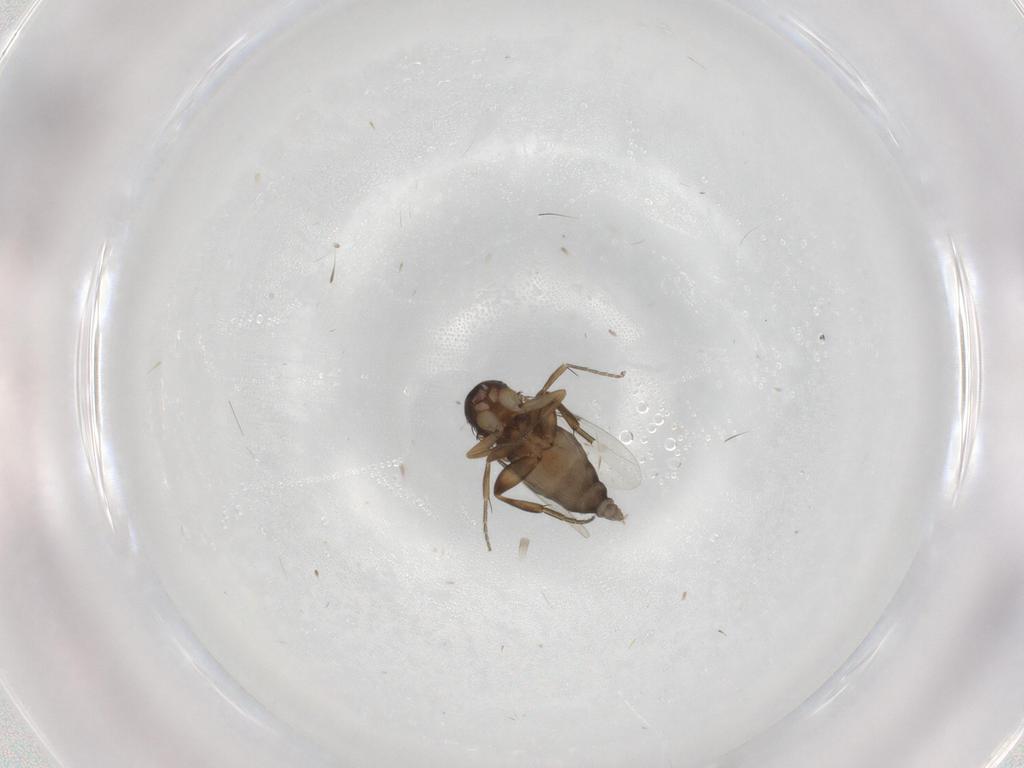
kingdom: Animalia
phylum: Arthropoda
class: Insecta
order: Diptera
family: Phoridae
